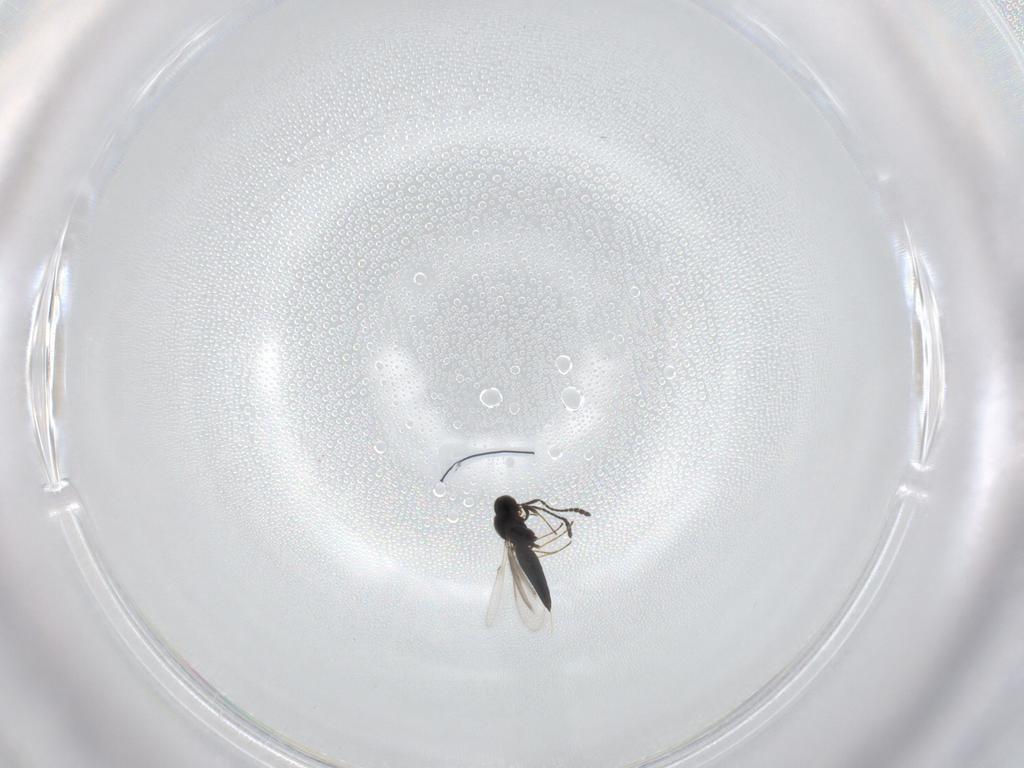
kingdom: Animalia
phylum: Arthropoda
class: Insecta
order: Hymenoptera
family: Scelionidae
